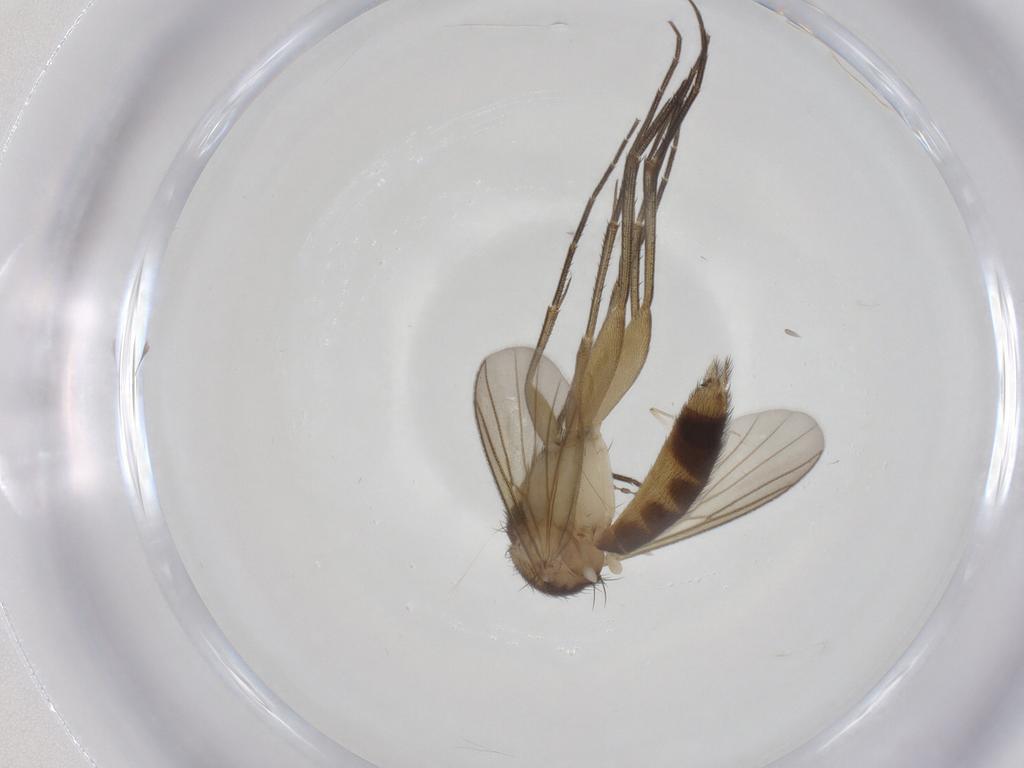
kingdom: Animalia
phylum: Arthropoda
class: Insecta
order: Diptera
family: Mycetophilidae
